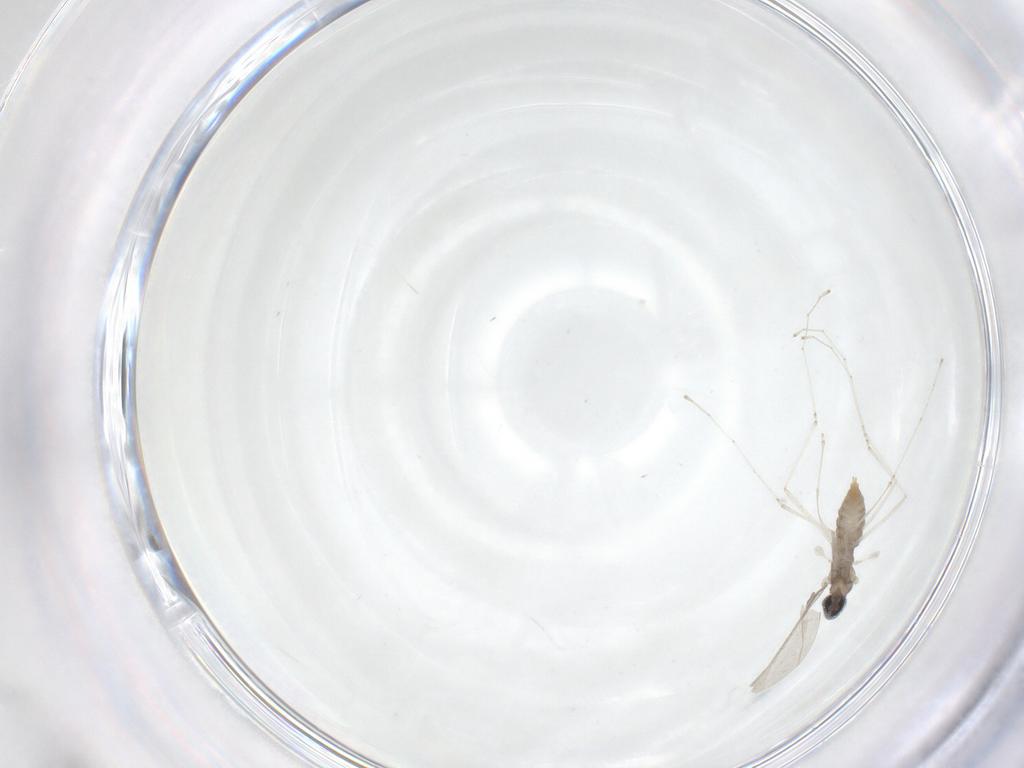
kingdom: Animalia
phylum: Arthropoda
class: Insecta
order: Diptera
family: Cecidomyiidae
